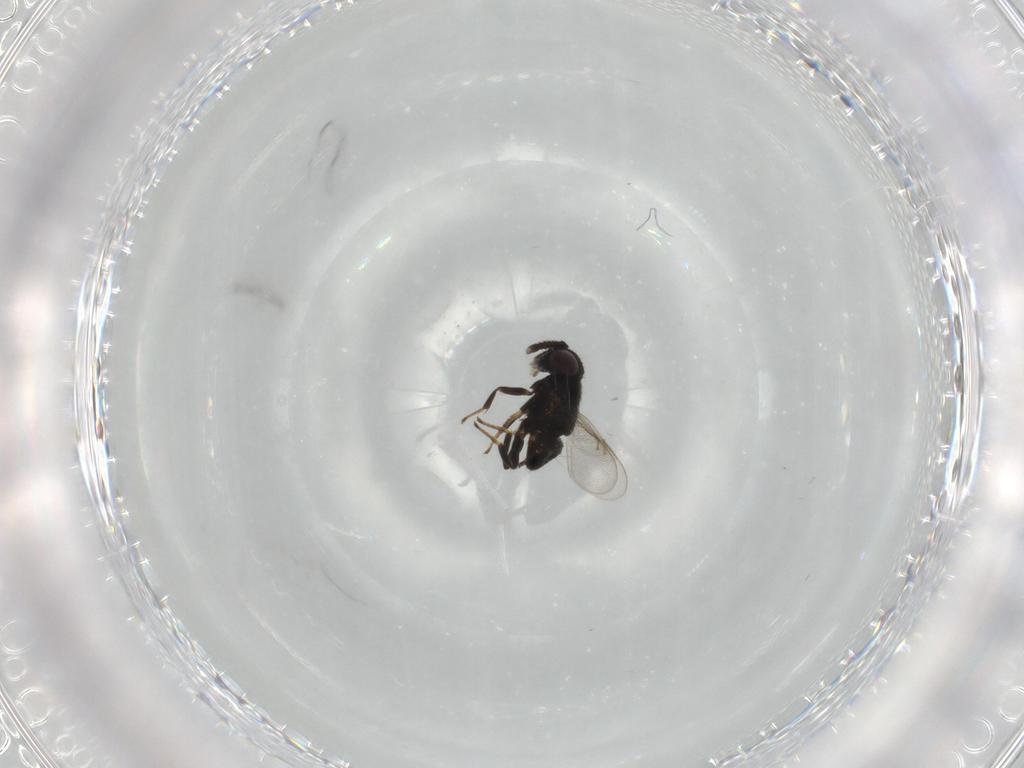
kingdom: Animalia
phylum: Arthropoda
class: Insecta
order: Hymenoptera
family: Encyrtidae
